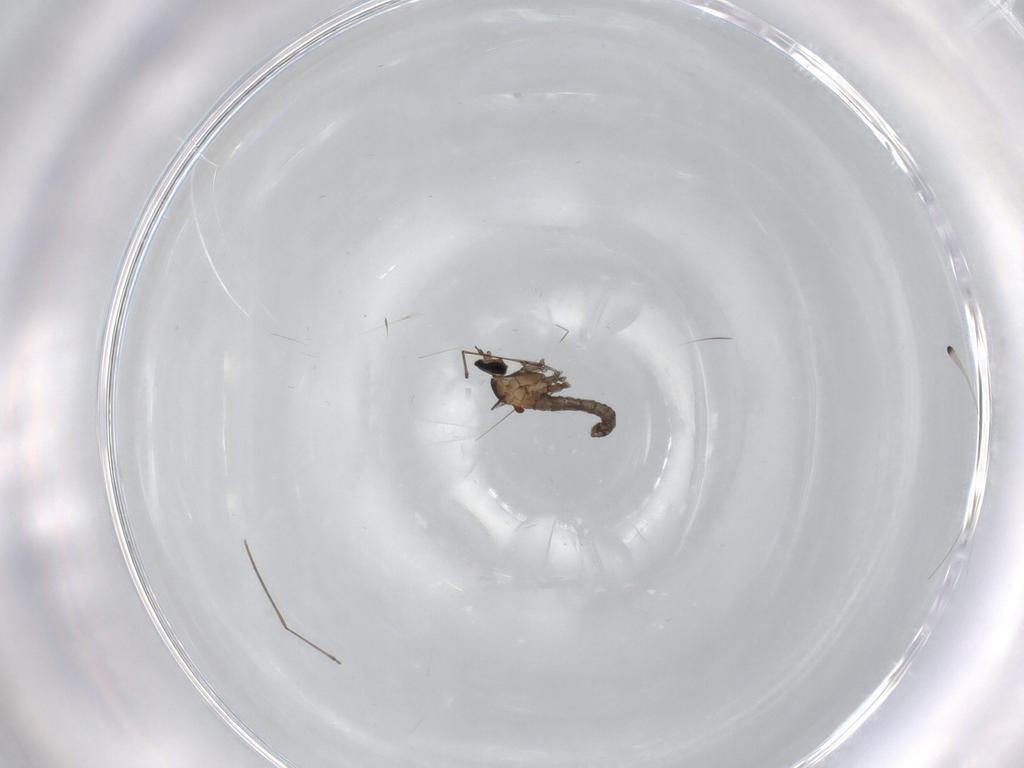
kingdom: Animalia
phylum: Arthropoda
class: Insecta
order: Diptera
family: Cecidomyiidae
